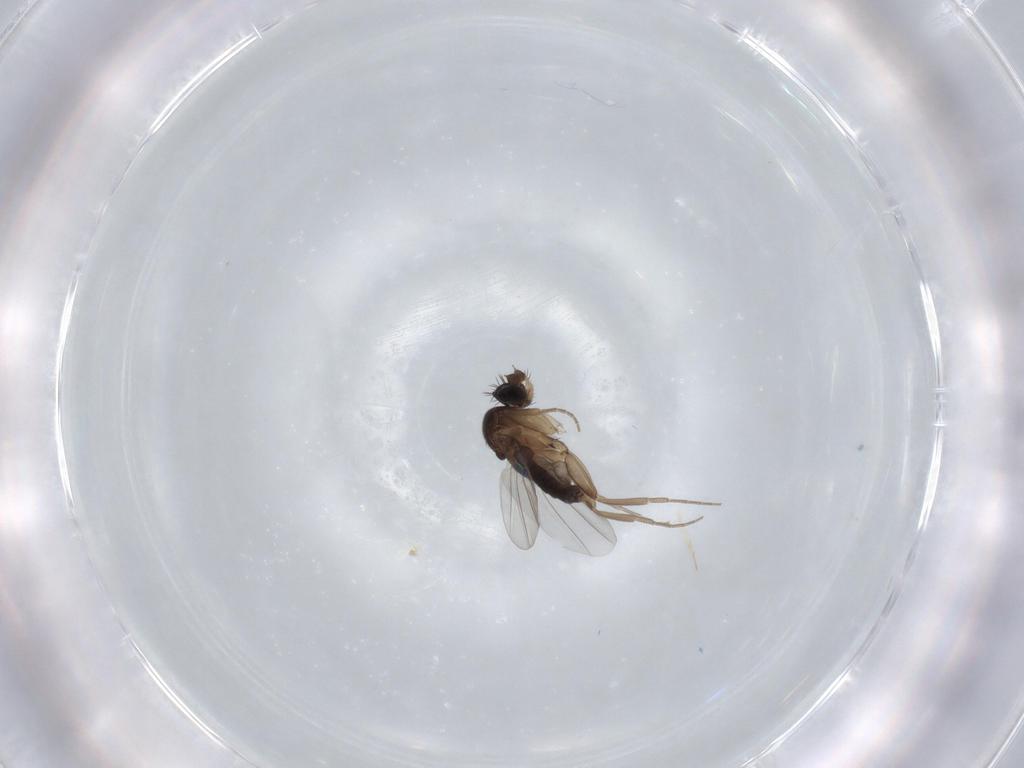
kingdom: Animalia
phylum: Arthropoda
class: Insecta
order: Diptera
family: Phoridae
